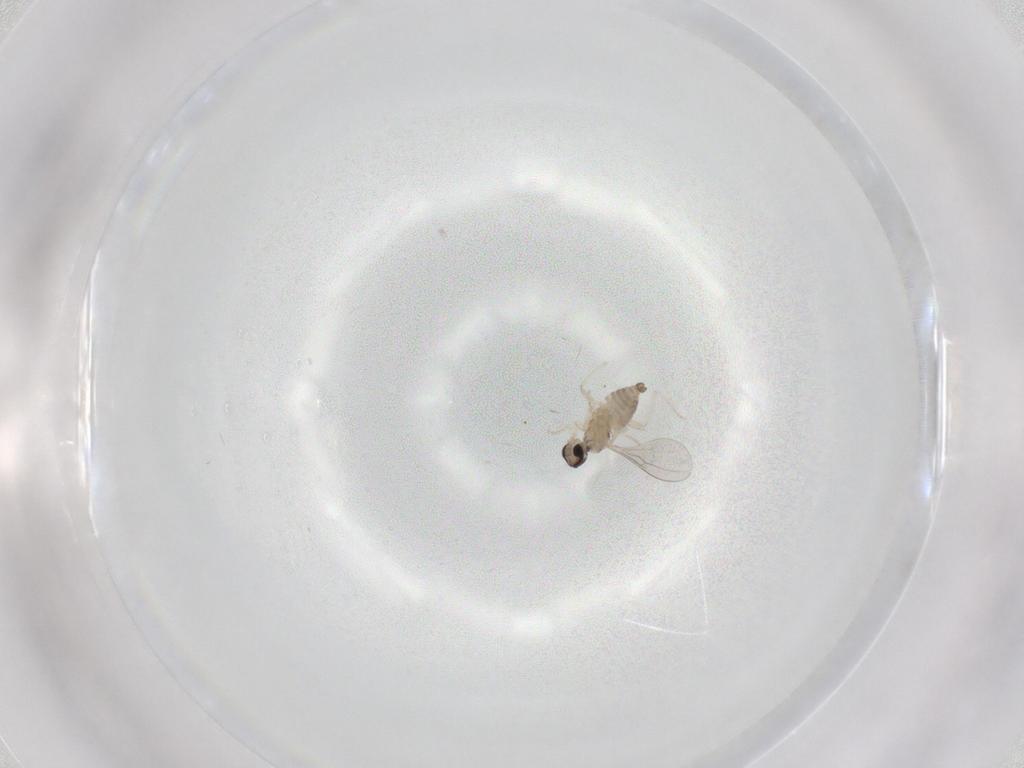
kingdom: Animalia
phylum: Arthropoda
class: Insecta
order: Diptera
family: Cecidomyiidae
